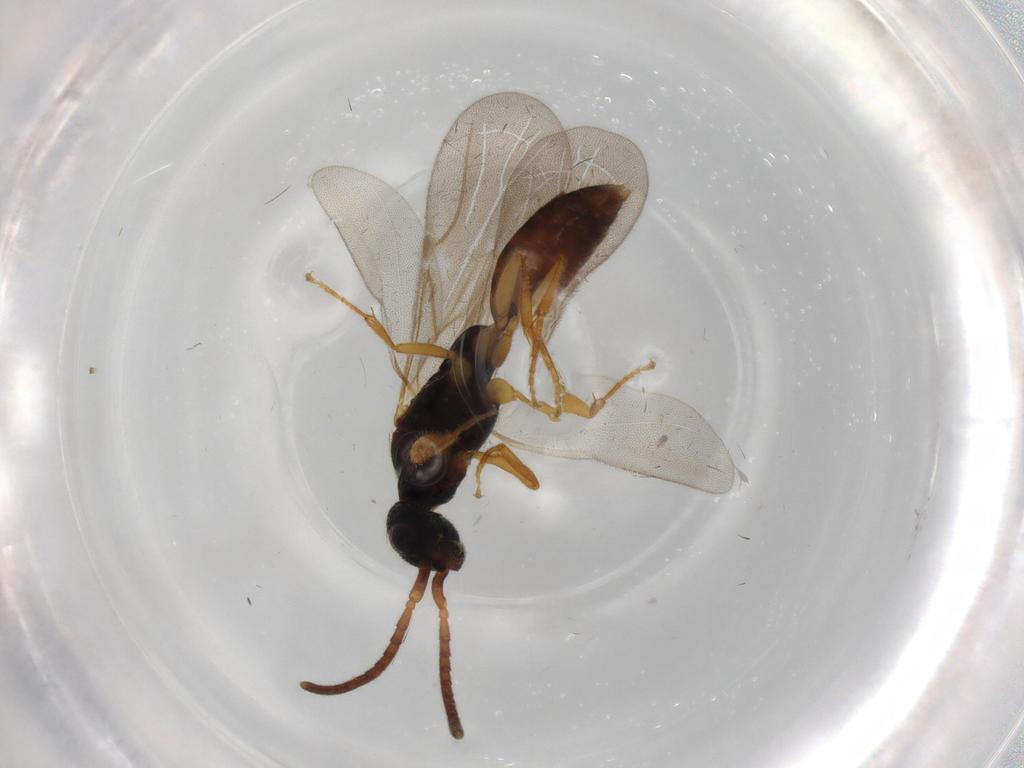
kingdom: Animalia
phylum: Arthropoda
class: Insecta
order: Hymenoptera
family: Bethylidae
